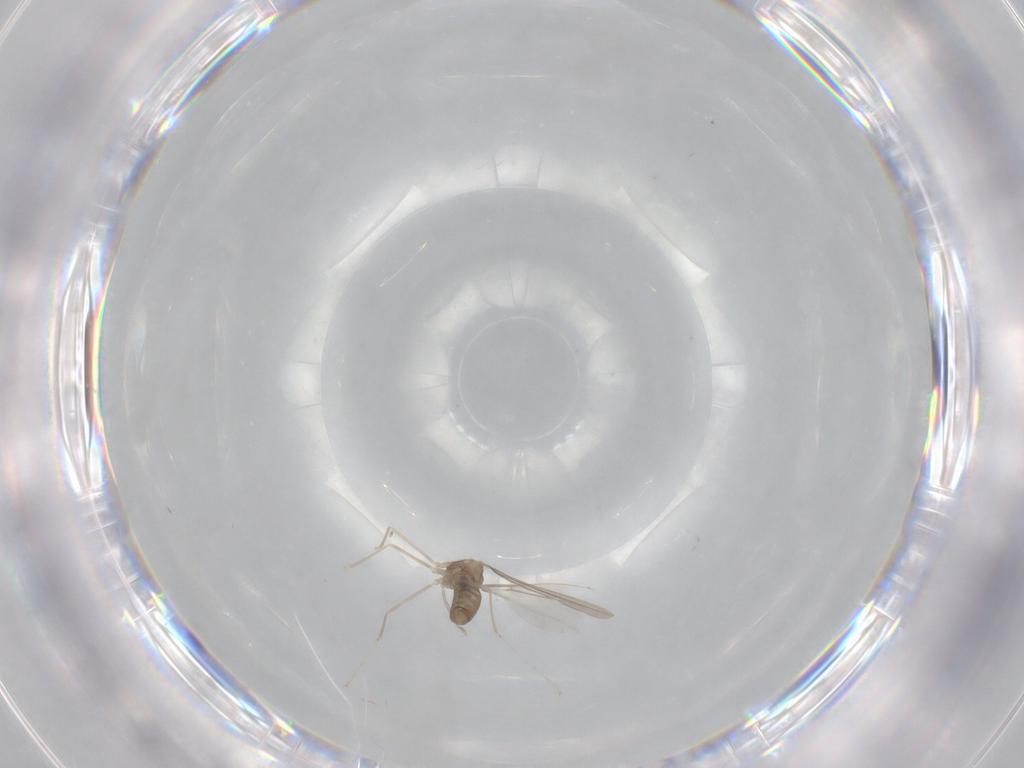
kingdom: Animalia
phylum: Arthropoda
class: Insecta
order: Diptera
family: Cecidomyiidae
